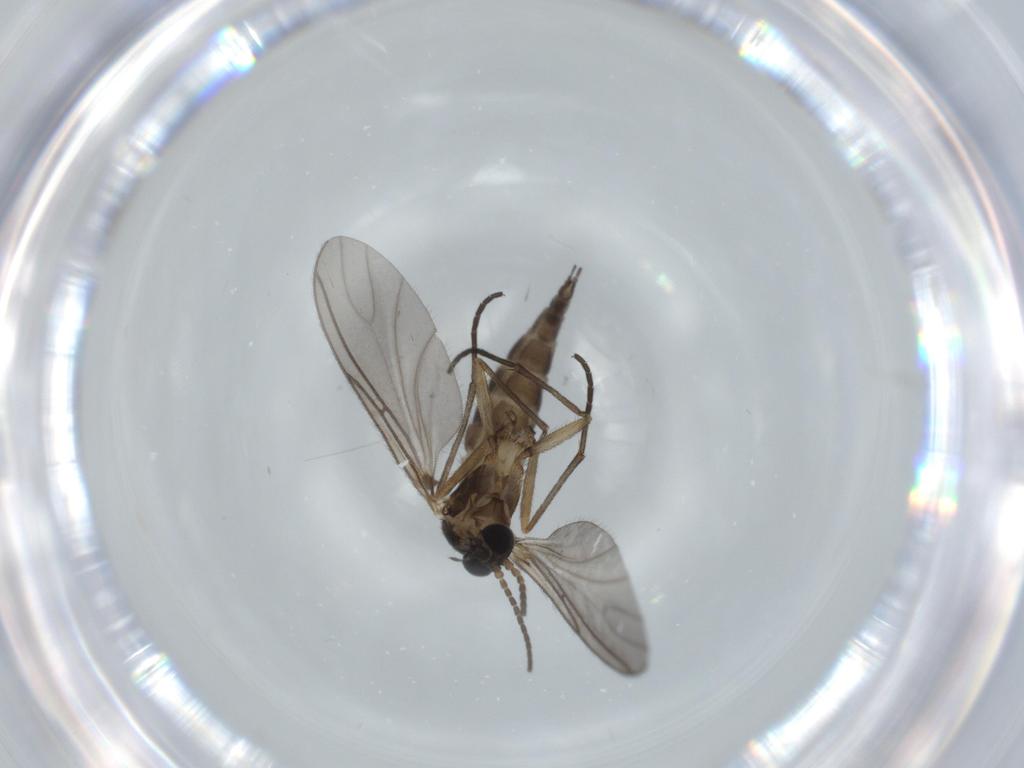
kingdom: Animalia
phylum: Arthropoda
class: Insecta
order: Diptera
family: Sciaridae
